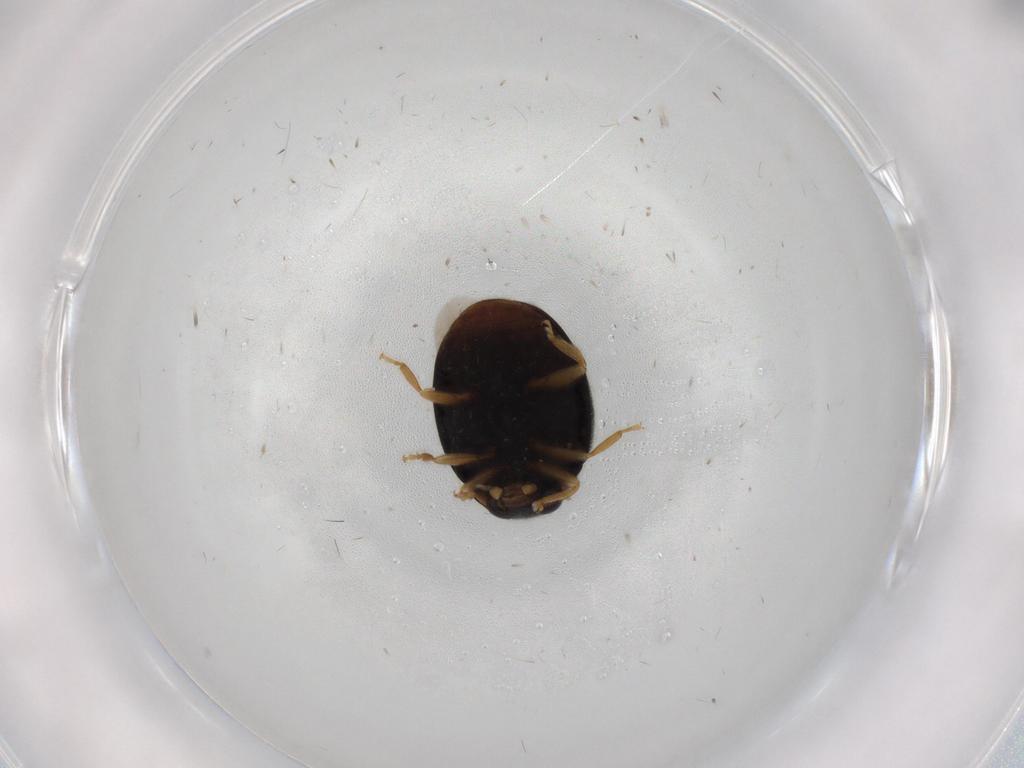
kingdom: Animalia
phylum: Arthropoda
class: Insecta
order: Coleoptera
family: Coccinellidae
